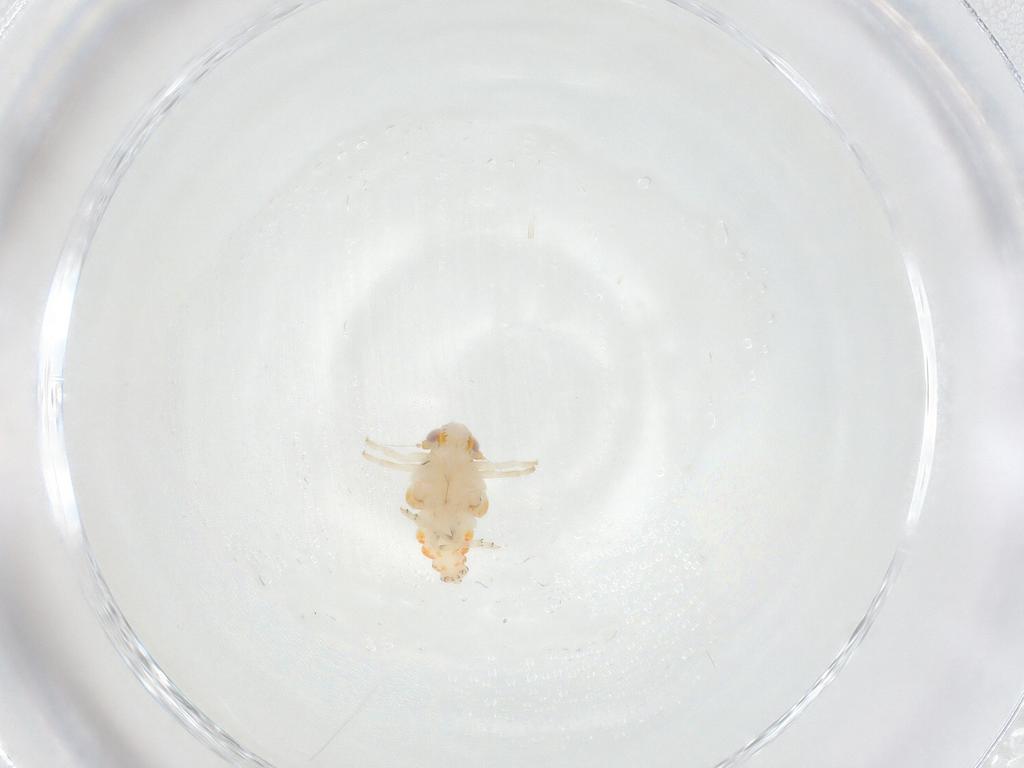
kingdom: Animalia
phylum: Arthropoda
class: Insecta
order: Hemiptera
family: Nogodinidae
